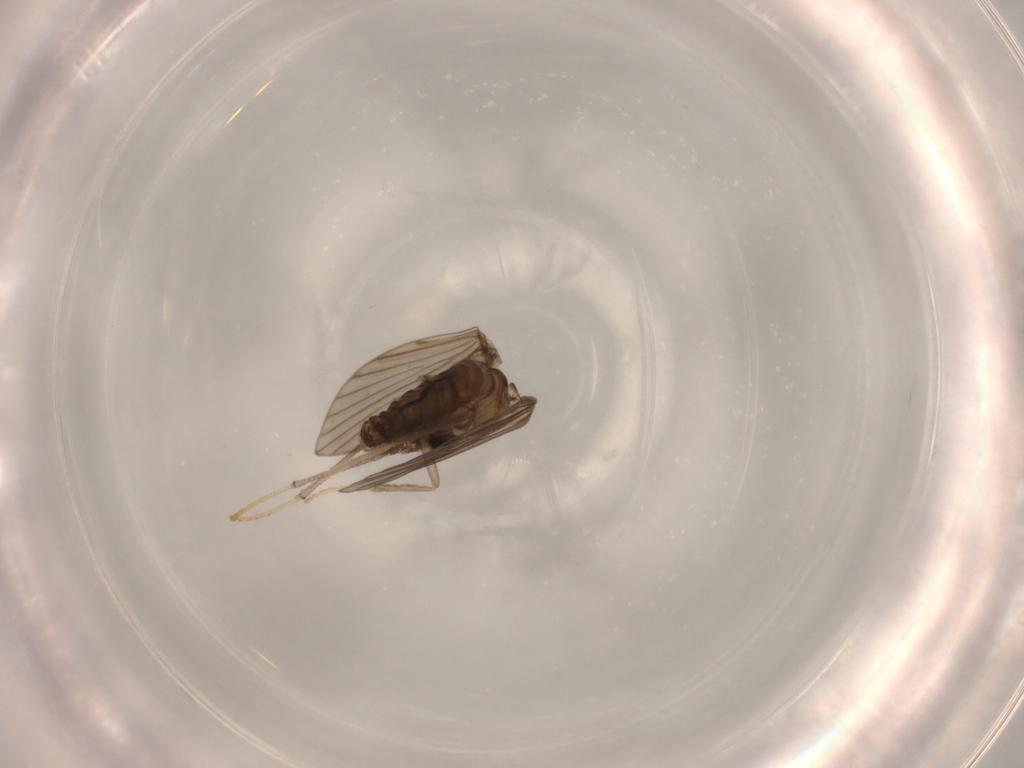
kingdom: Animalia
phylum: Arthropoda
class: Insecta
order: Diptera
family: Psychodidae
